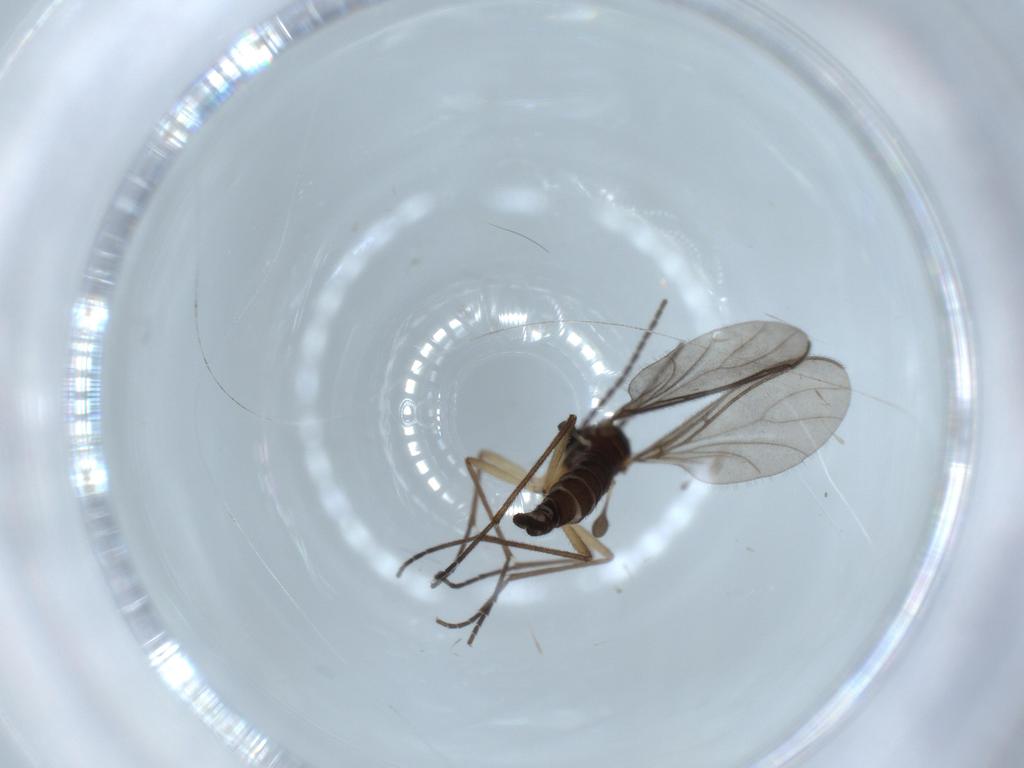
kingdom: Animalia
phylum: Arthropoda
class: Insecta
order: Diptera
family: Sciaridae
